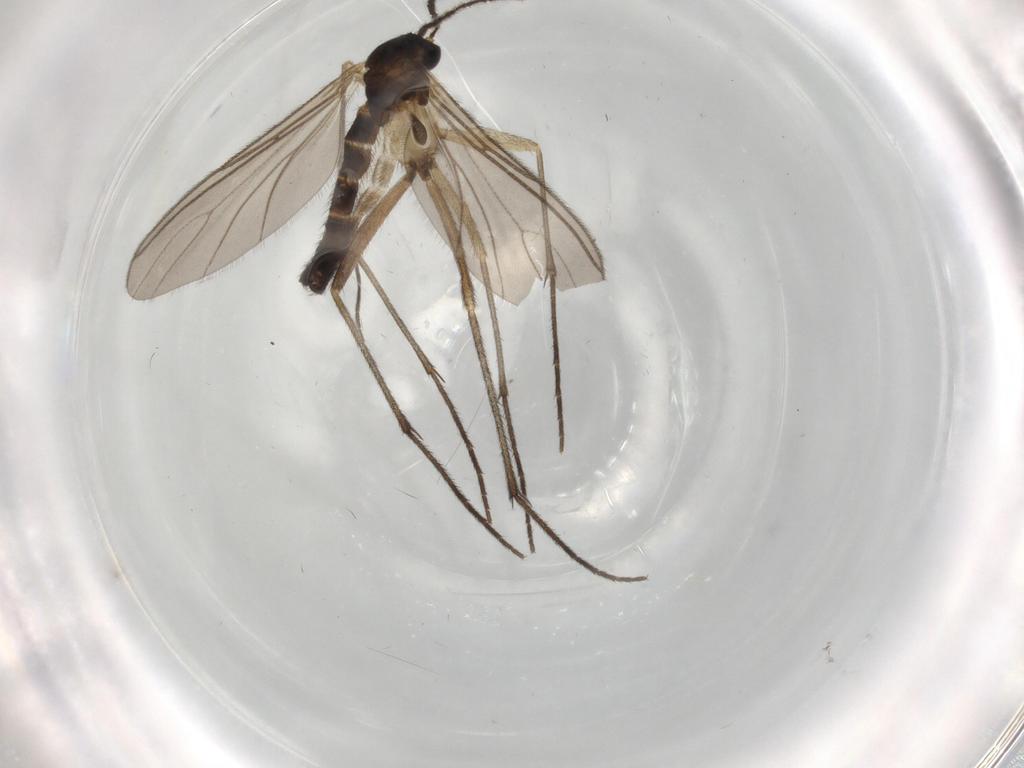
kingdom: Animalia
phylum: Arthropoda
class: Insecta
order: Diptera
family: Sciaridae
